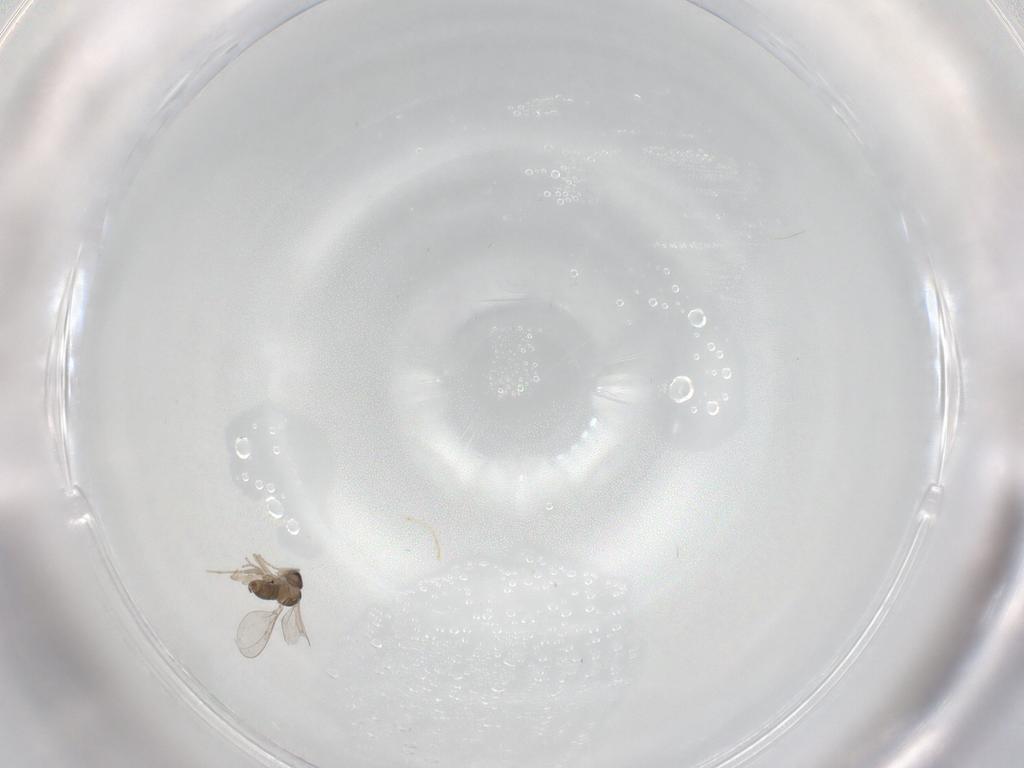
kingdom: Animalia
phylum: Arthropoda
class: Insecta
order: Diptera
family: Cecidomyiidae
